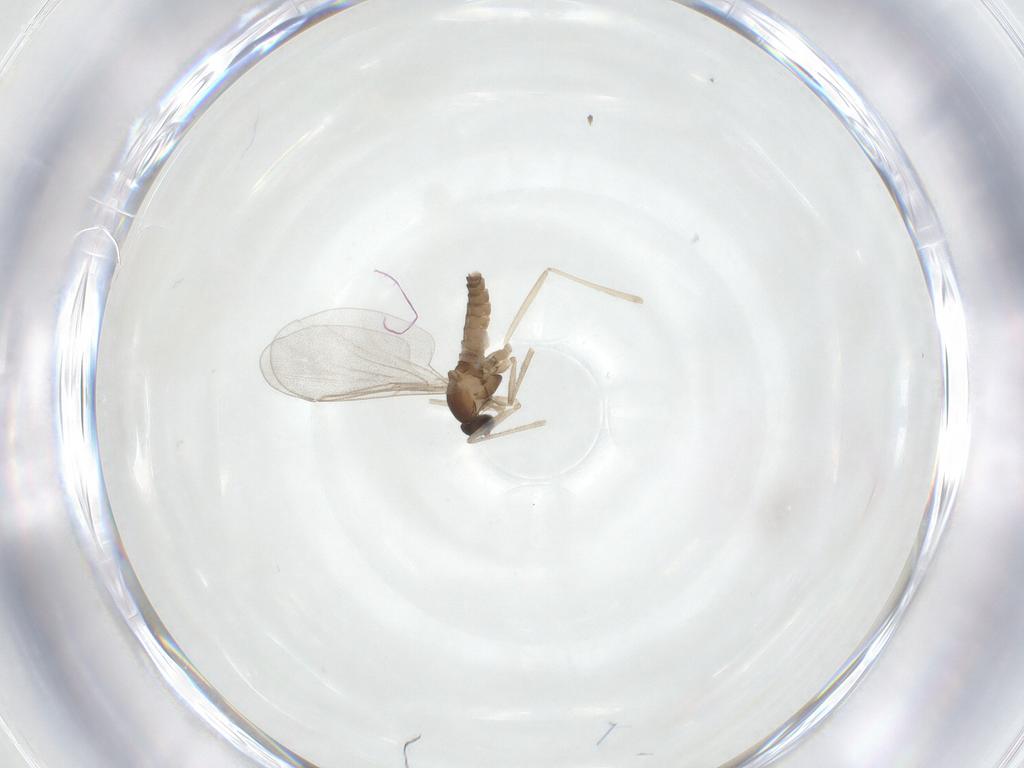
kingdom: Animalia
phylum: Arthropoda
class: Insecta
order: Diptera
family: Cecidomyiidae
